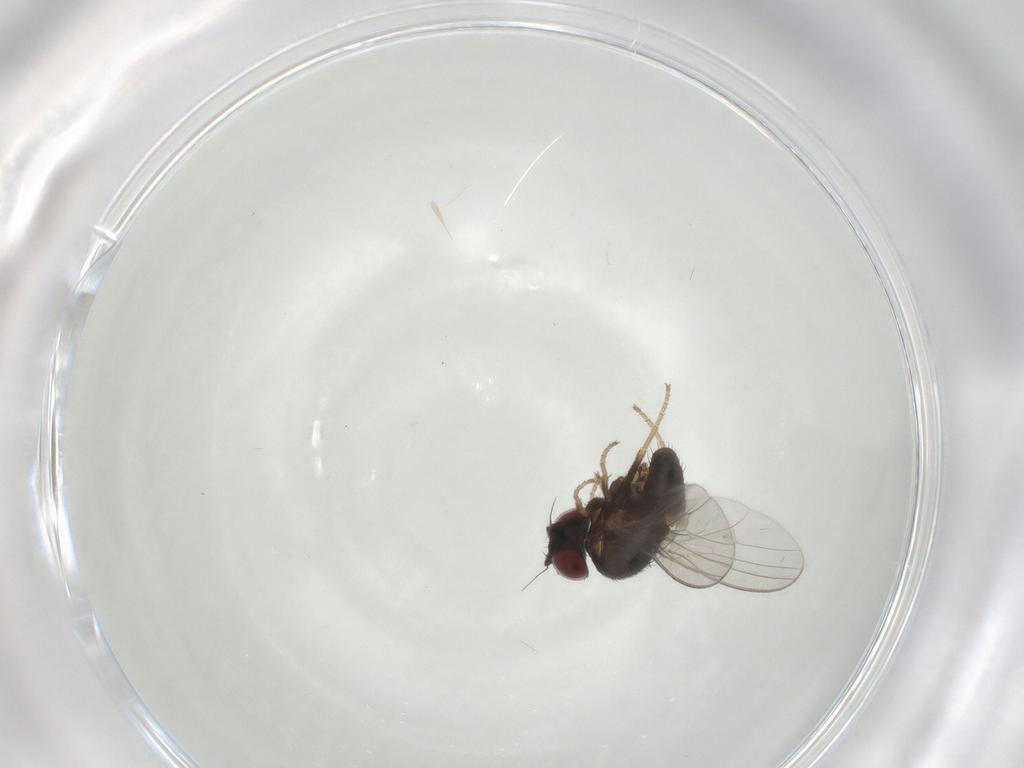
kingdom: Animalia
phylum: Arthropoda
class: Insecta
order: Diptera
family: Milichiidae
